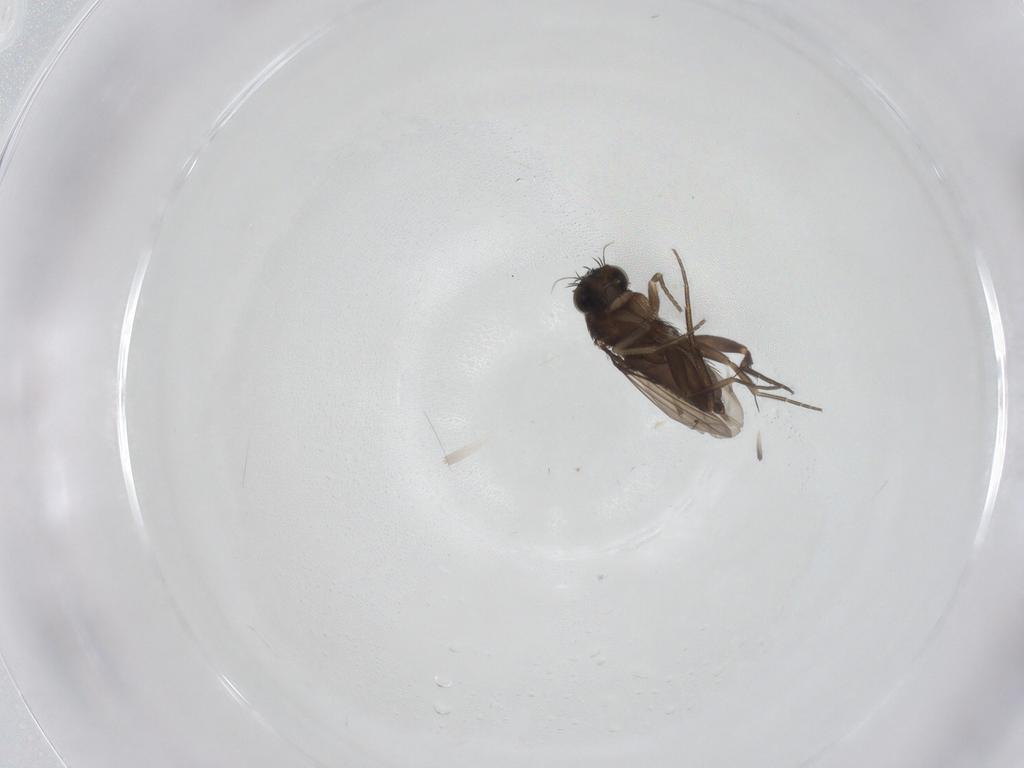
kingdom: Animalia
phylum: Arthropoda
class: Insecta
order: Diptera
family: Phoridae
